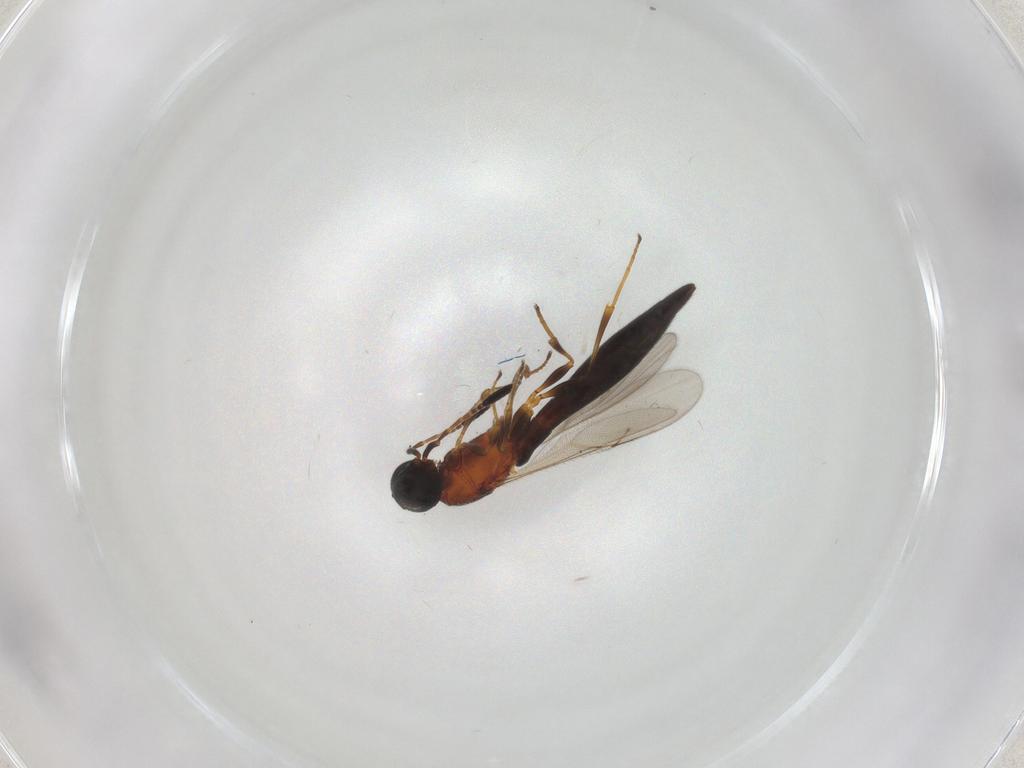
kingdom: Animalia
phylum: Arthropoda
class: Insecta
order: Hymenoptera
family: Scelionidae
